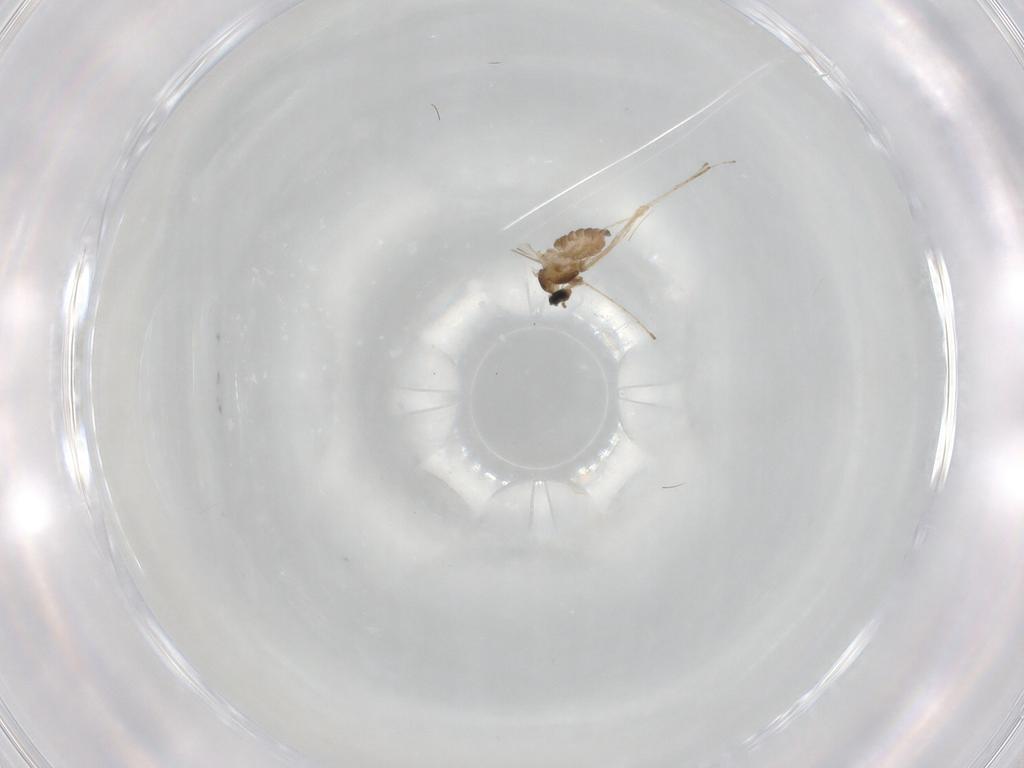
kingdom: Animalia
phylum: Arthropoda
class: Insecta
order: Diptera
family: Cecidomyiidae
